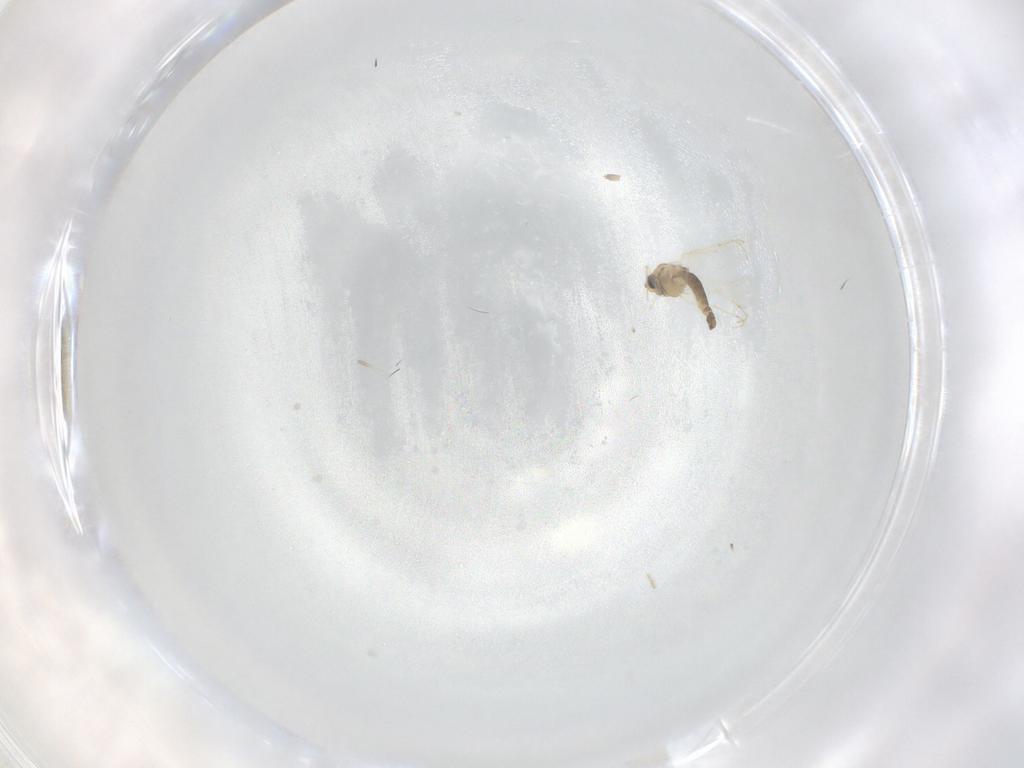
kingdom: Animalia
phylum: Arthropoda
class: Insecta
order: Diptera
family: Chironomidae
